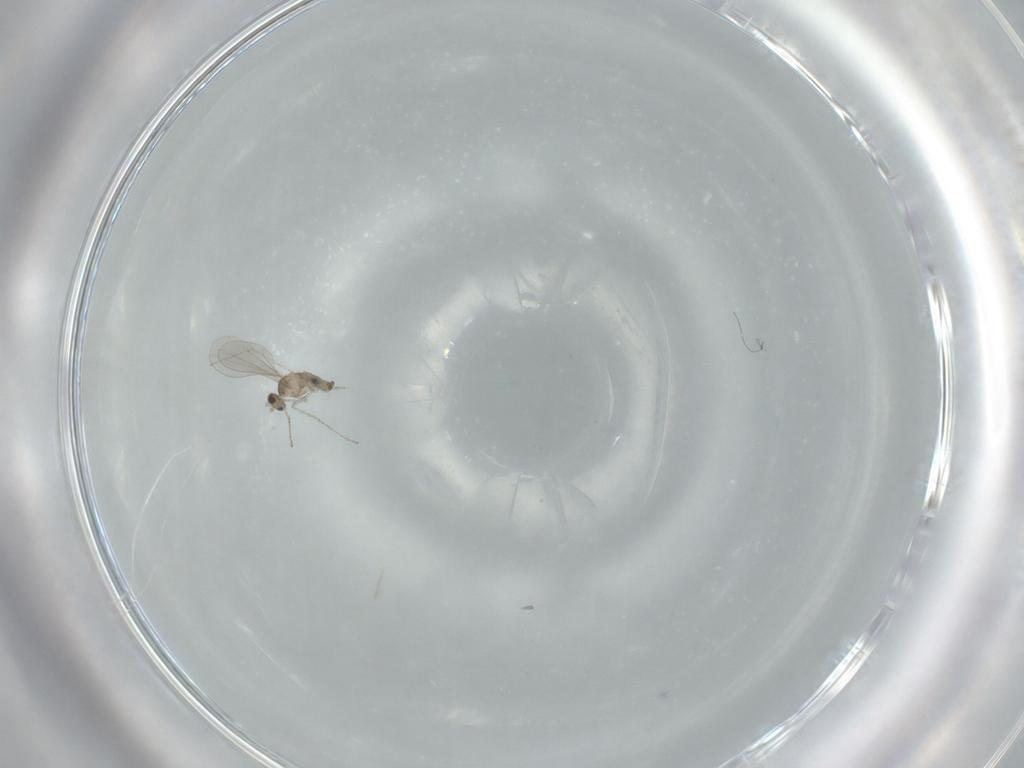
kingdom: Animalia
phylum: Arthropoda
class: Insecta
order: Diptera
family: Cecidomyiidae
